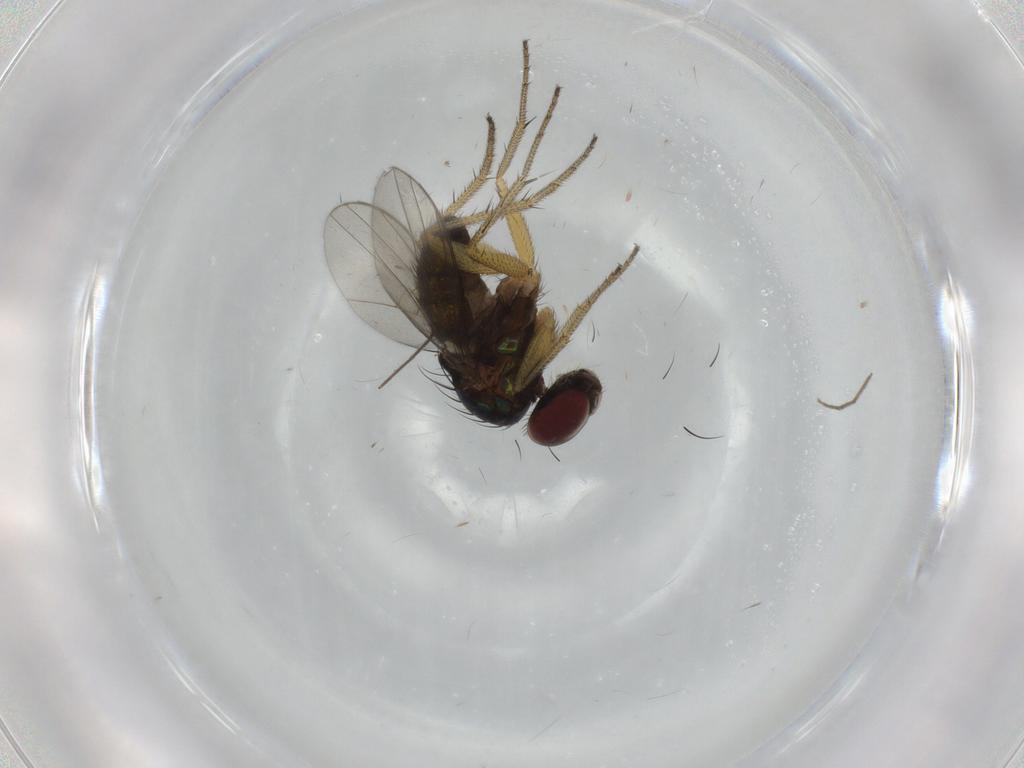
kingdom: Animalia
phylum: Arthropoda
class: Insecta
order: Diptera
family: Dolichopodidae
